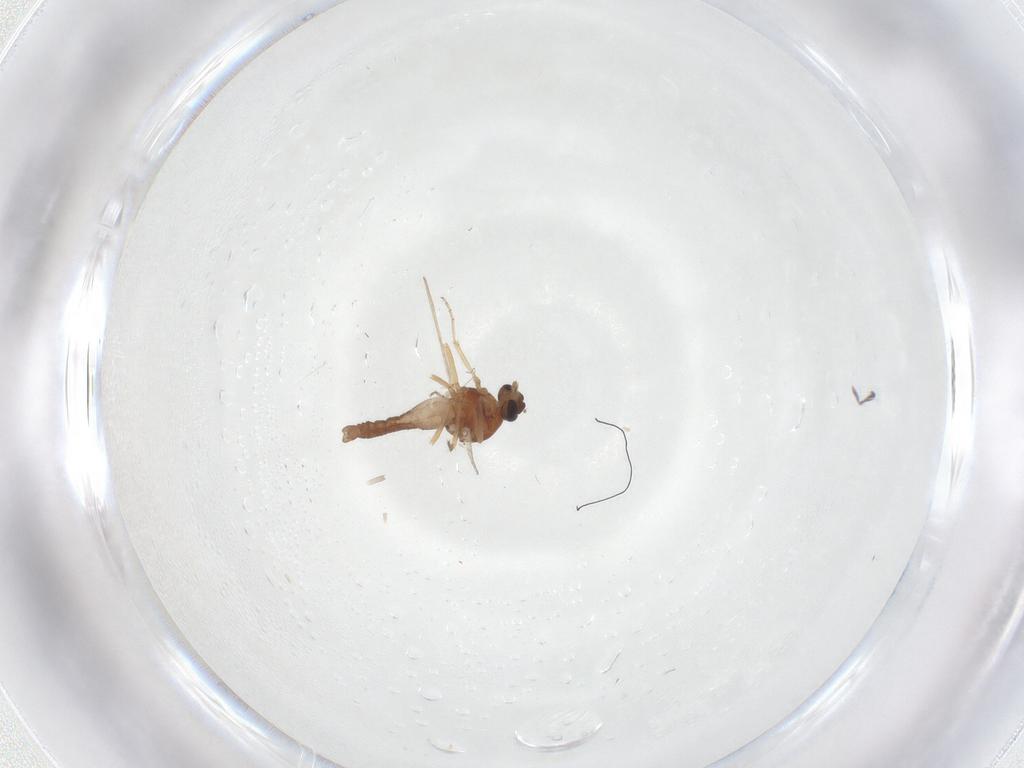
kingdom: Animalia
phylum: Arthropoda
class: Insecta
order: Diptera
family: Ceratopogonidae
